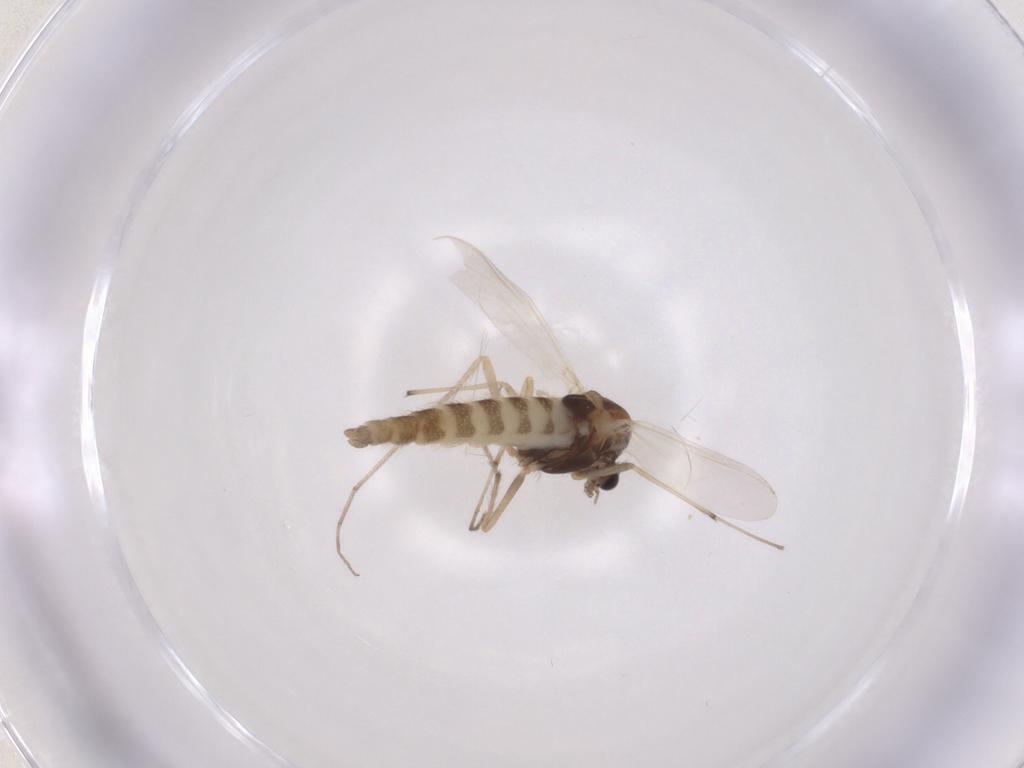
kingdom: Animalia
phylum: Arthropoda
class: Insecta
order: Diptera
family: Chironomidae
